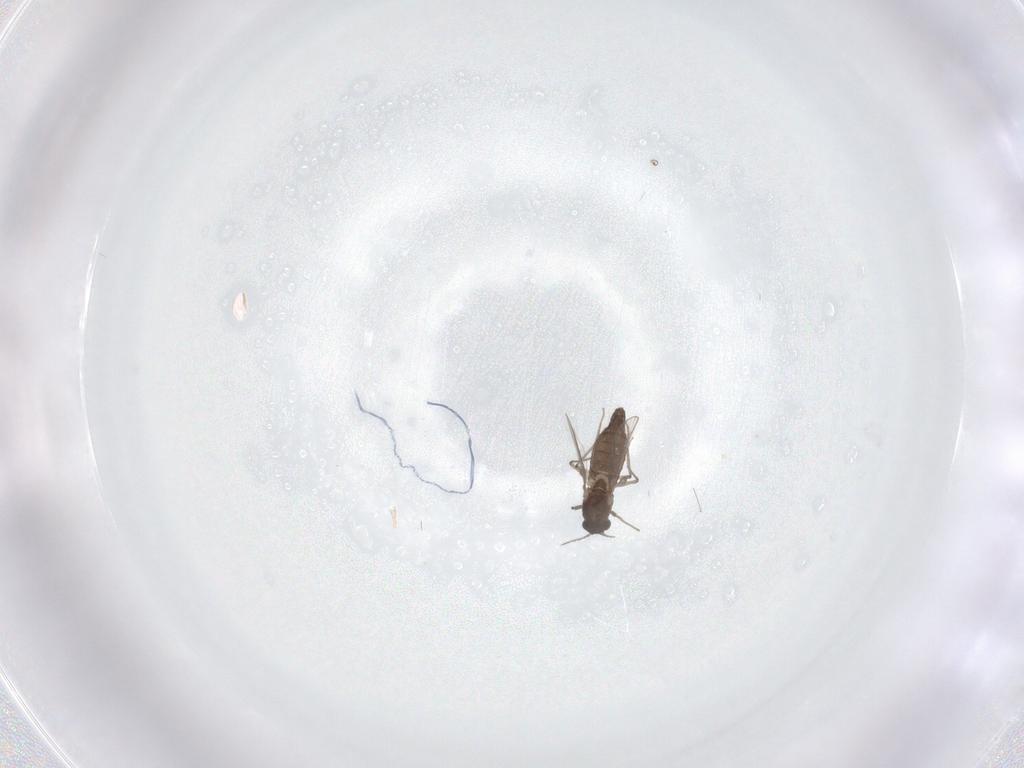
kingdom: Animalia
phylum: Arthropoda
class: Insecta
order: Diptera
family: Chironomidae
